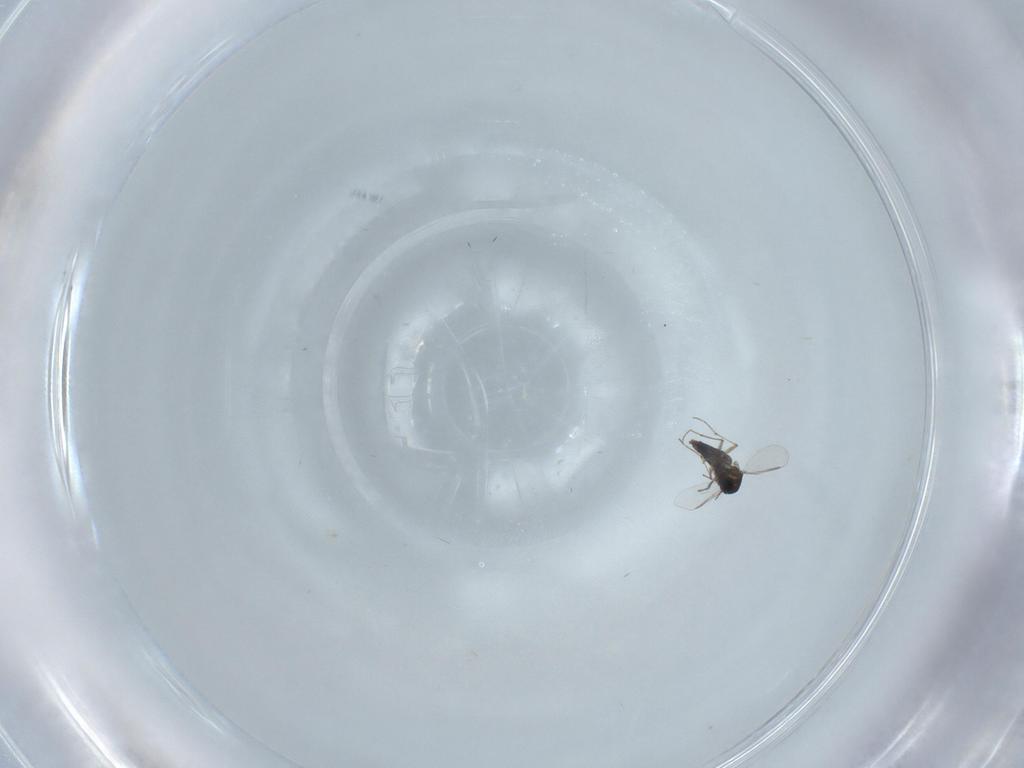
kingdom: Animalia
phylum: Arthropoda
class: Insecta
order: Diptera
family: Chironomidae
